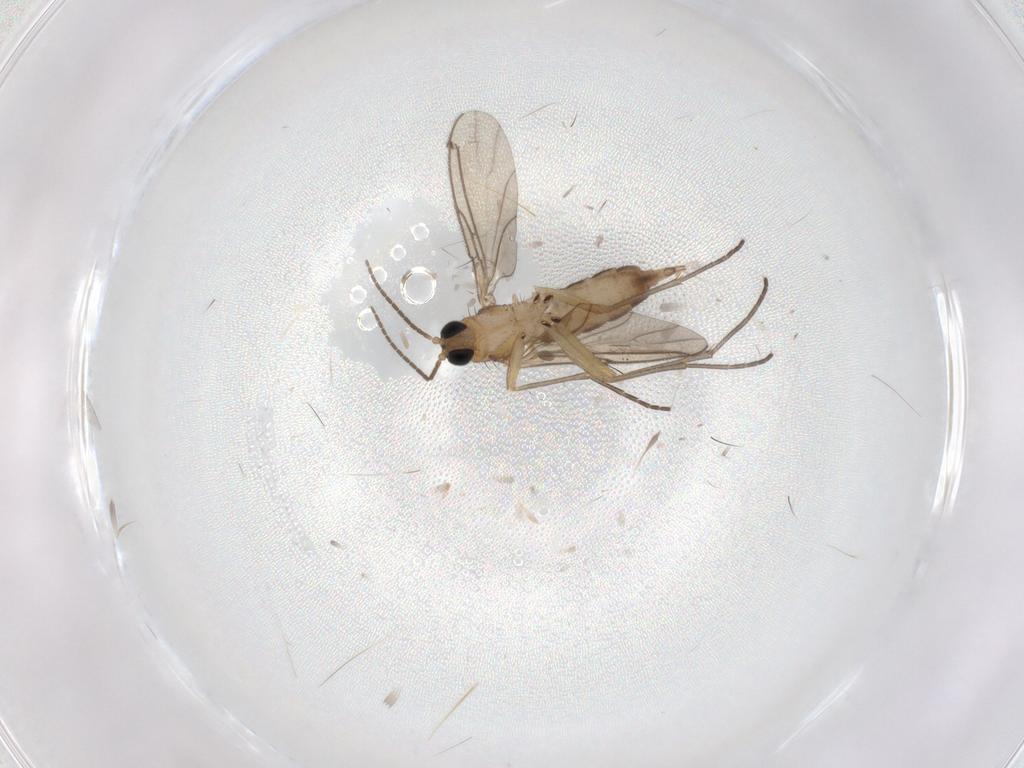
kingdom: Animalia
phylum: Arthropoda
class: Insecta
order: Diptera
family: Psychodidae
